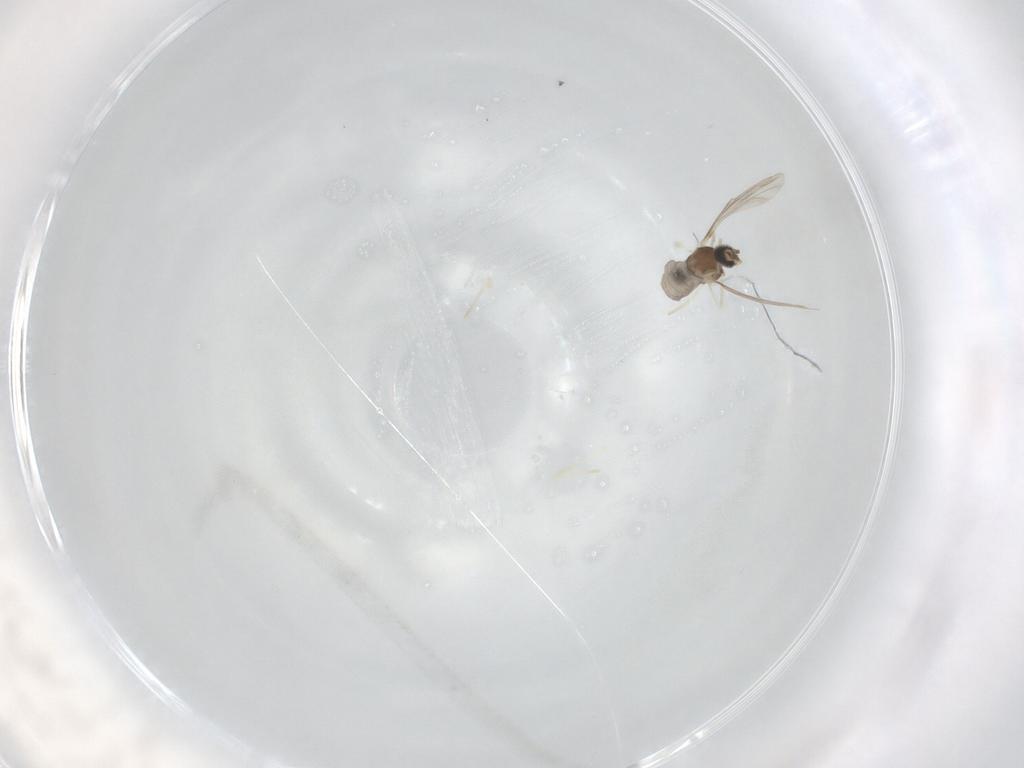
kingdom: Animalia
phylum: Arthropoda
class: Insecta
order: Diptera
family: Cecidomyiidae
